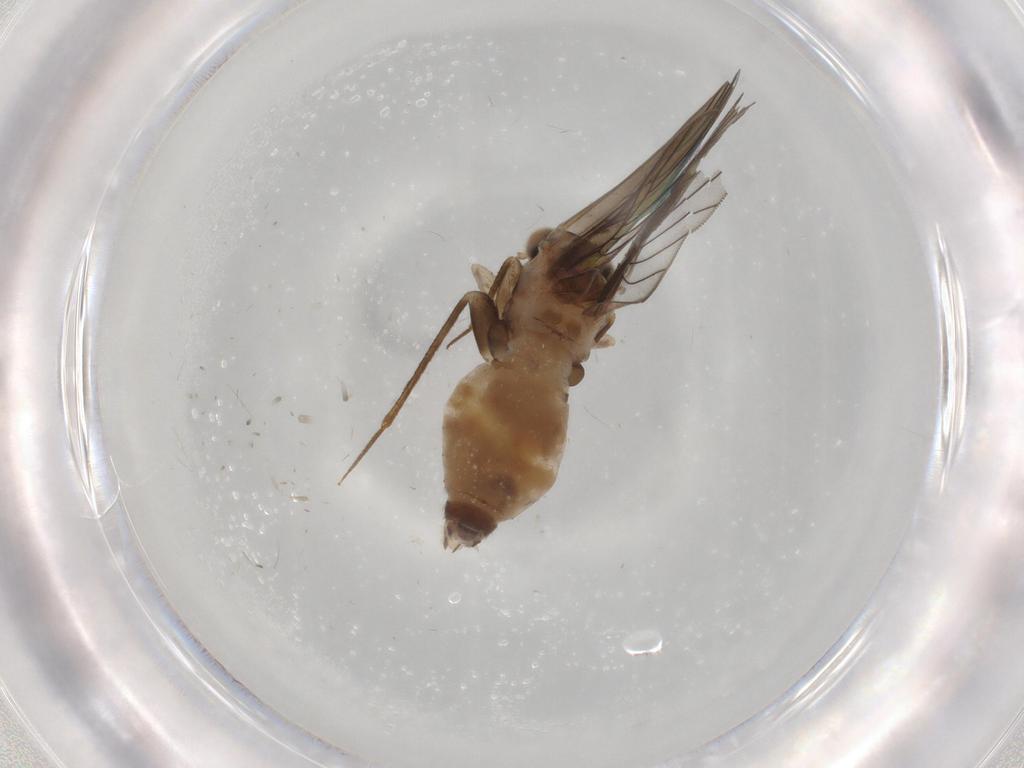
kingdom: Animalia
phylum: Arthropoda
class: Insecta
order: Psocodea
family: Lepidopsocidae
